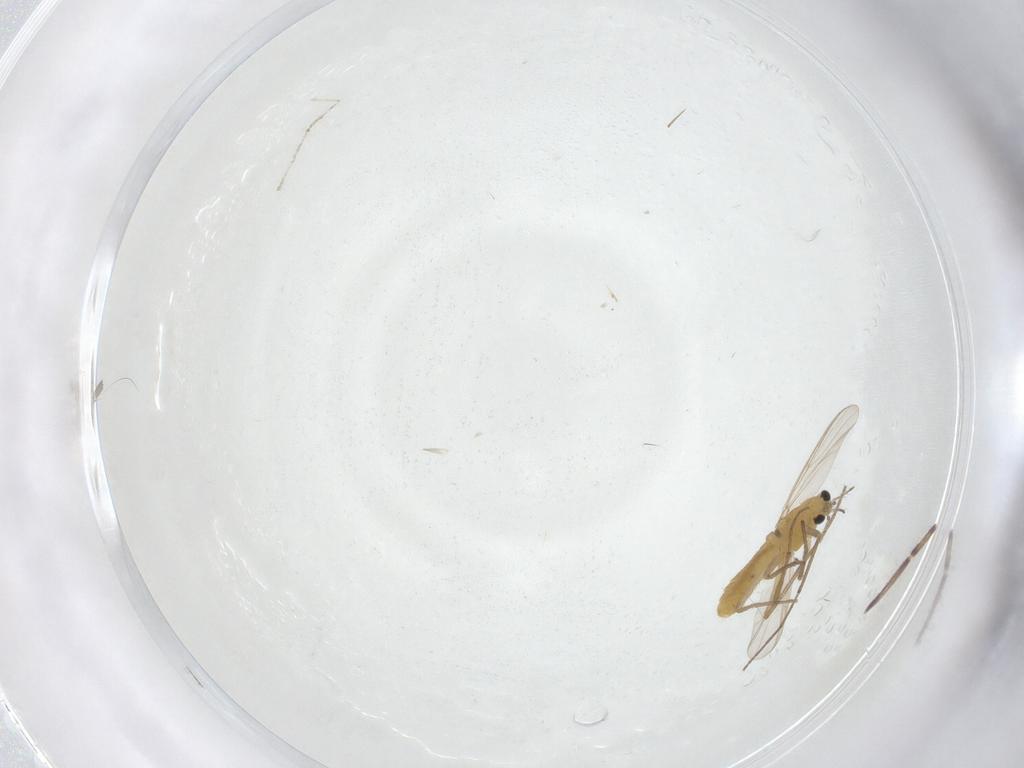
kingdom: Animalia
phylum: Arthropoda
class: Insecta
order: Diptera
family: Chironomidae
